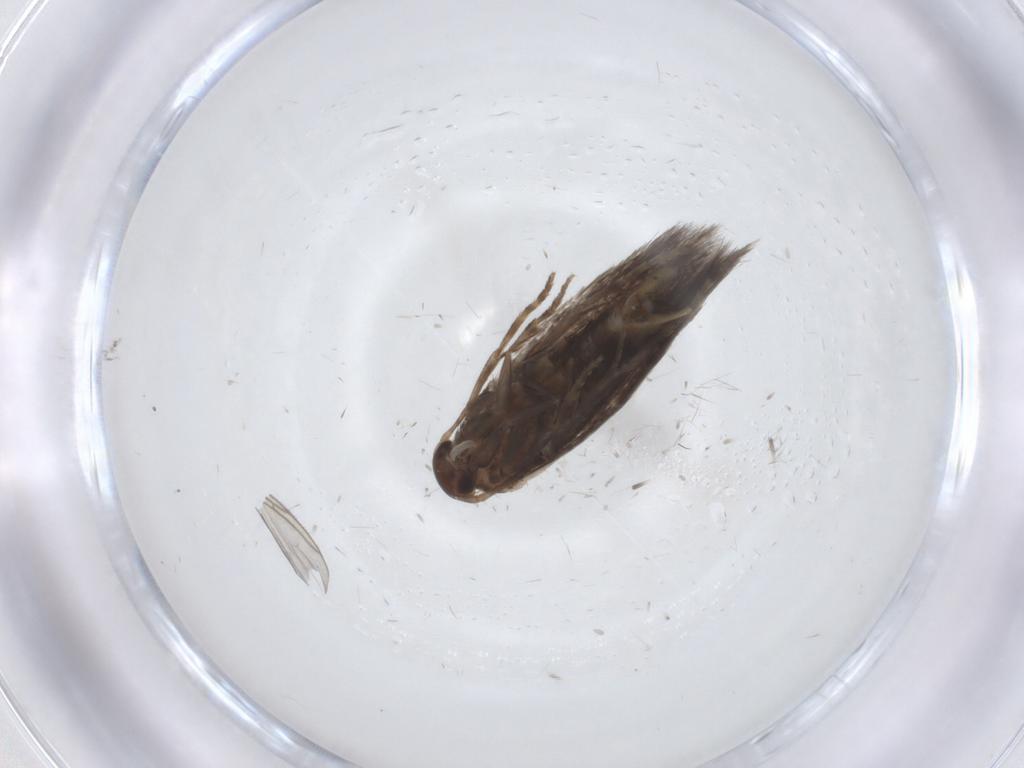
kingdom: Animalia
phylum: Arthropoda
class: Insecta
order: Lepidoptera
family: Elachistidae
